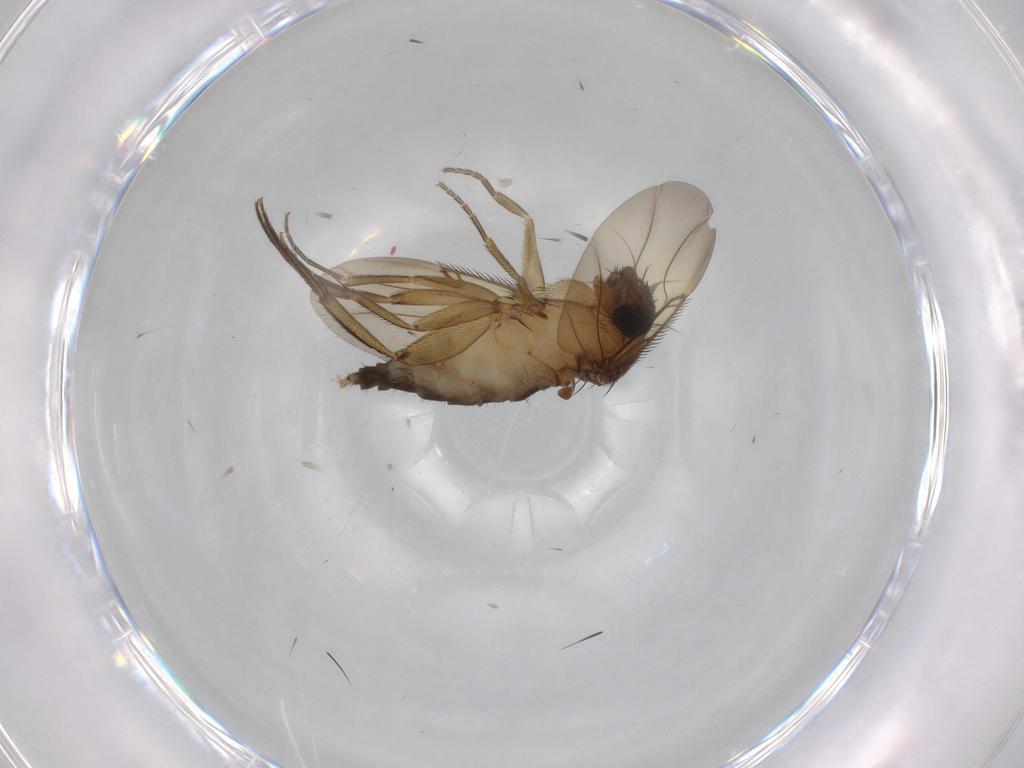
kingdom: Animalia
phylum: Arthropoda
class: Insecta
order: Diptera
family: Phoridae
